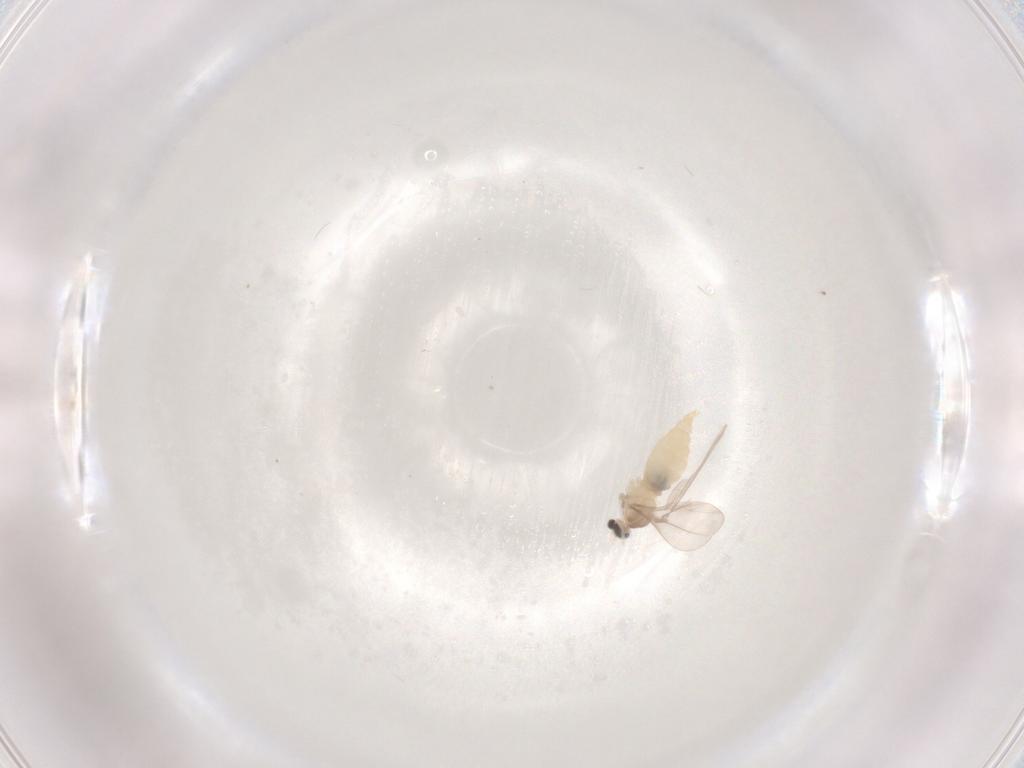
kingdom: Animalia
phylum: Arthropoda
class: Insecta
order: Diptera
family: Cecidomyiidae
